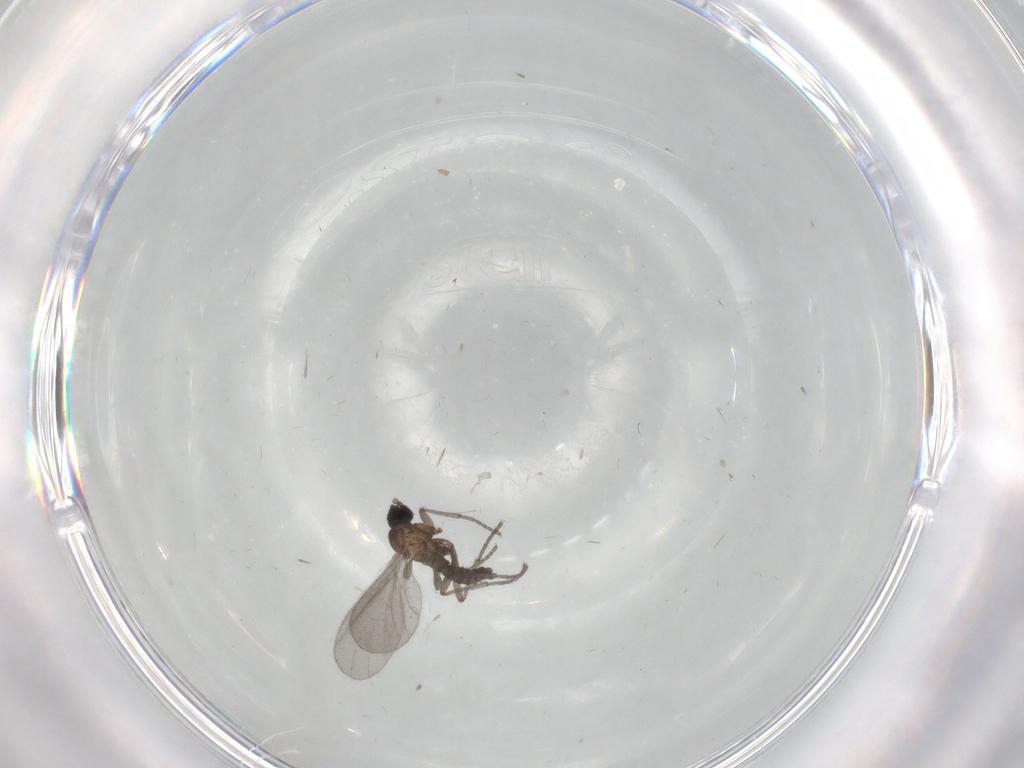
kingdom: Animalia
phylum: Arthropoda
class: Insecta
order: Diptera
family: Sciaridae
